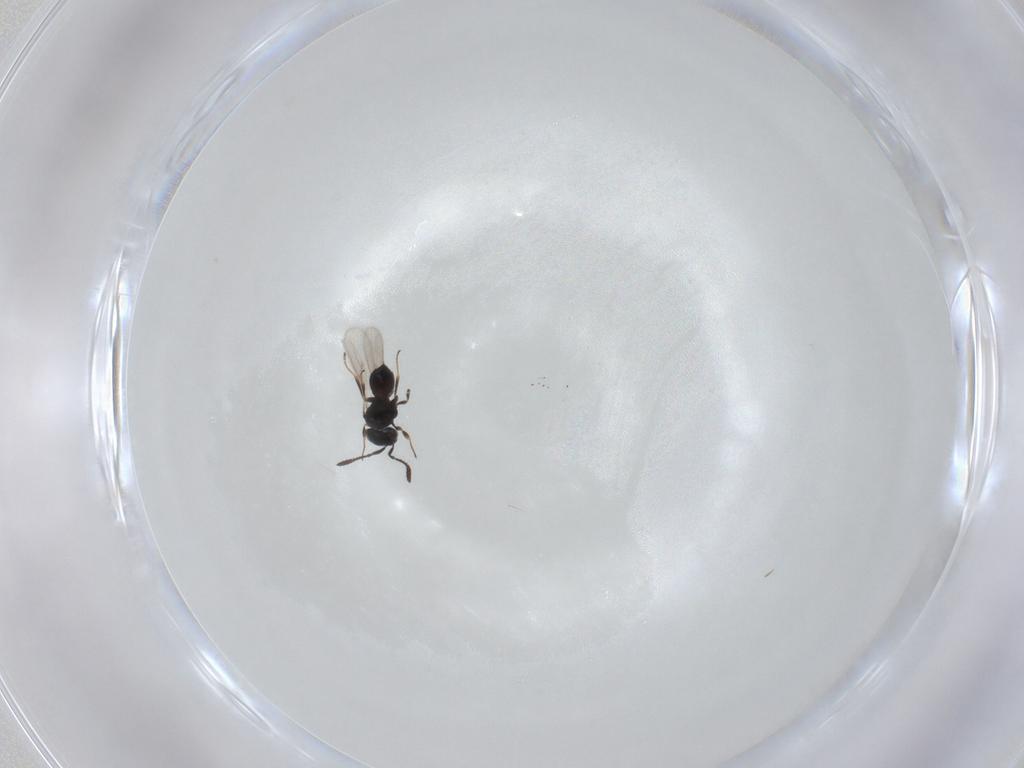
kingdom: Animalia
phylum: Arthropoda
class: Insecta
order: Hymenoptera
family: Scelionidae
